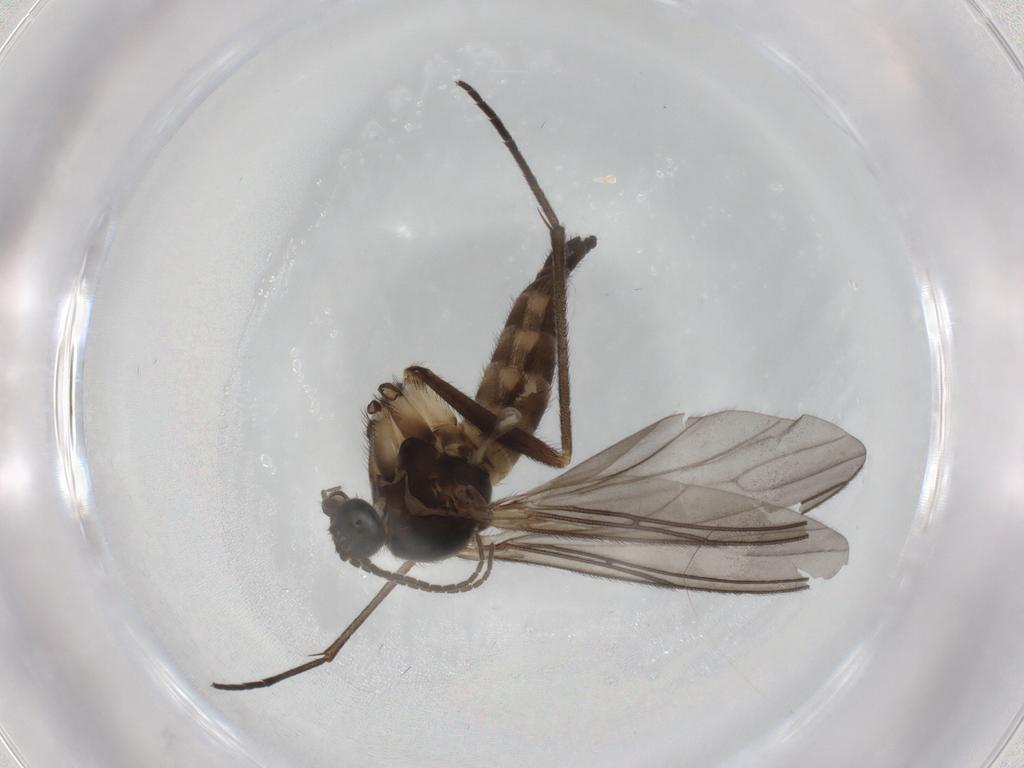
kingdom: Animalia
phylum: Arthropoda
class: Insecta
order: Diptera
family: Sciaridae
